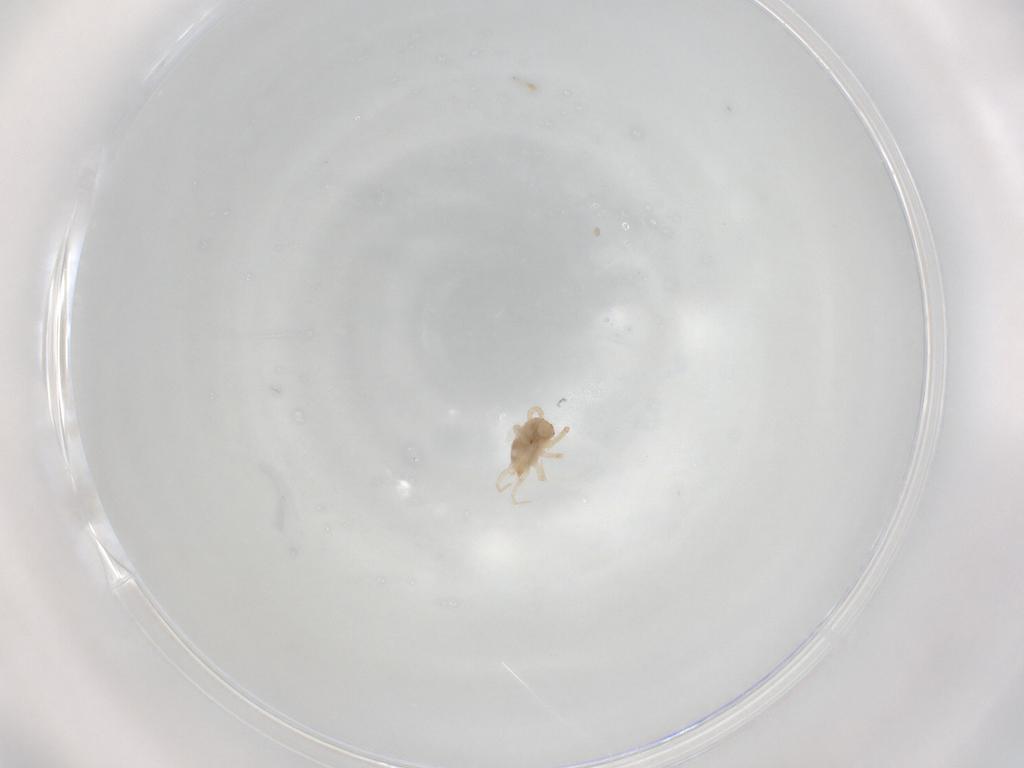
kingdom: Animalia
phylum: Arthropoda
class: Arachnida
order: Mesostigmata
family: Blattisociidae
